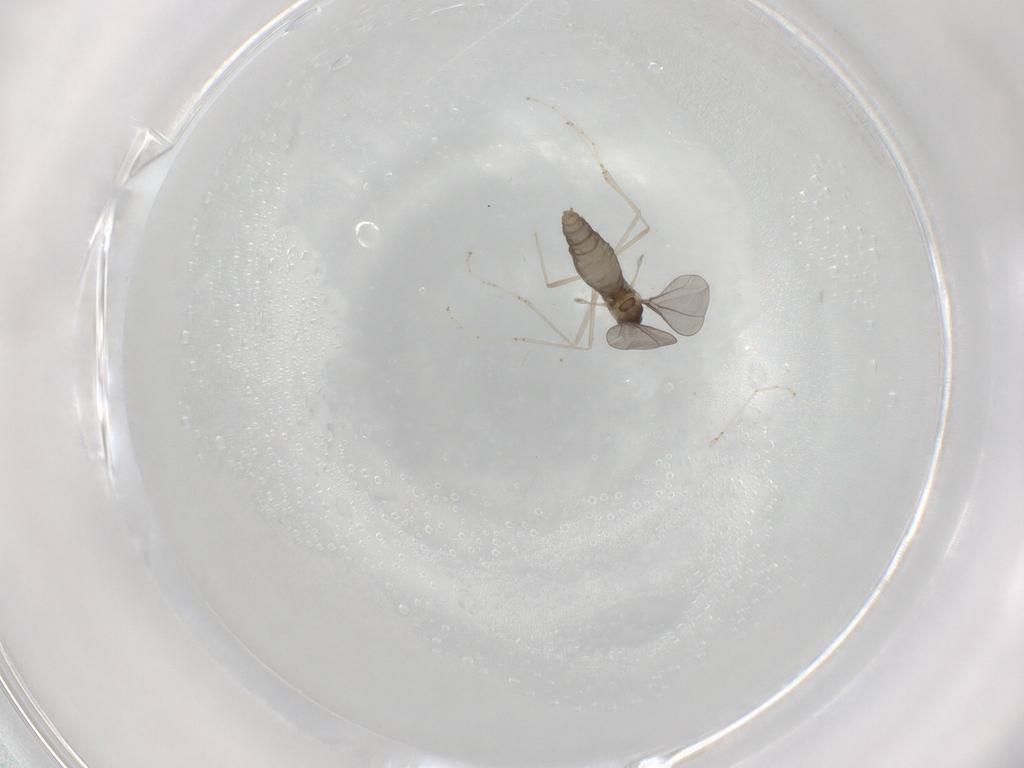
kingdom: Animalia
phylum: Arthropoda
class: Insecta
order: Diptera
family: Cecidomyiidae
